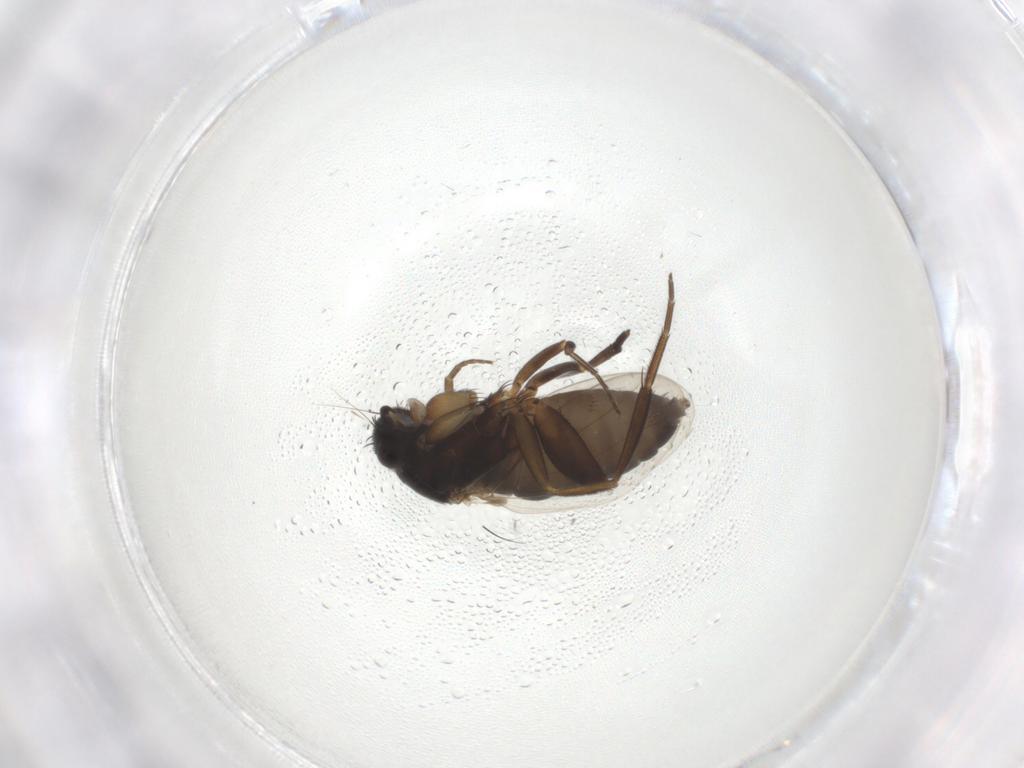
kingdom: Animalia
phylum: Arthropoda
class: Insecta
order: Diptera
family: Phoridae
